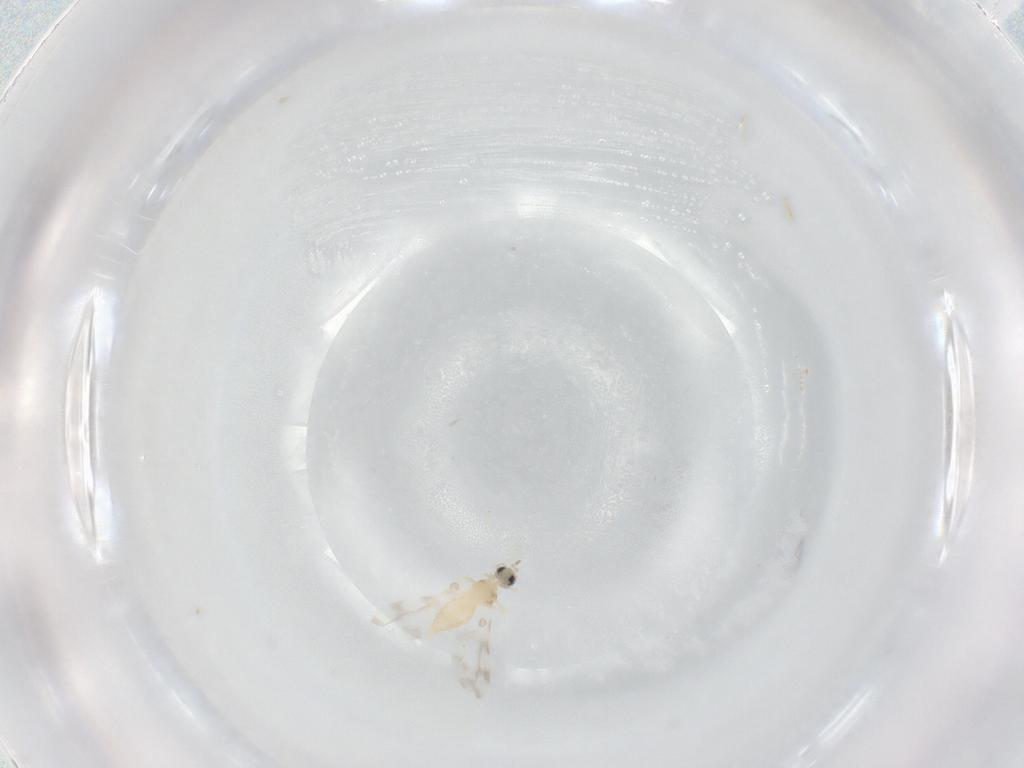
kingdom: Animalia
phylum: Arthropoda
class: Insecta
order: Diptera
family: Cecidomyiidae
